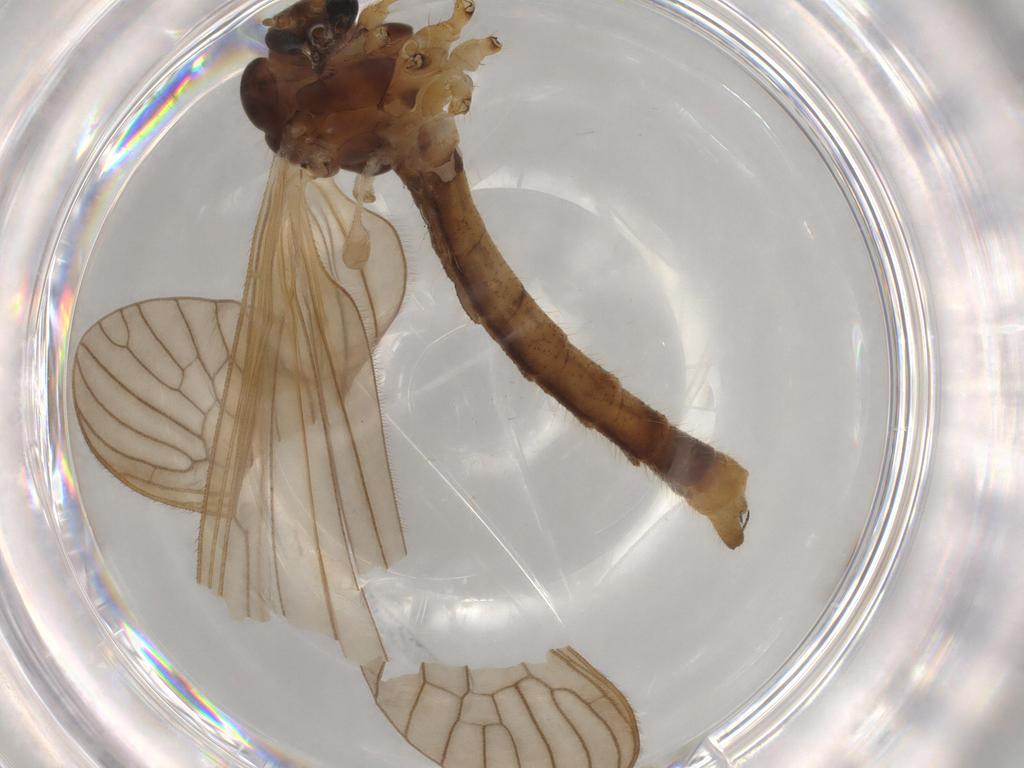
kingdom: Animalia
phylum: Arthropoda
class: Insecta
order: Diptera
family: Limoniidae
